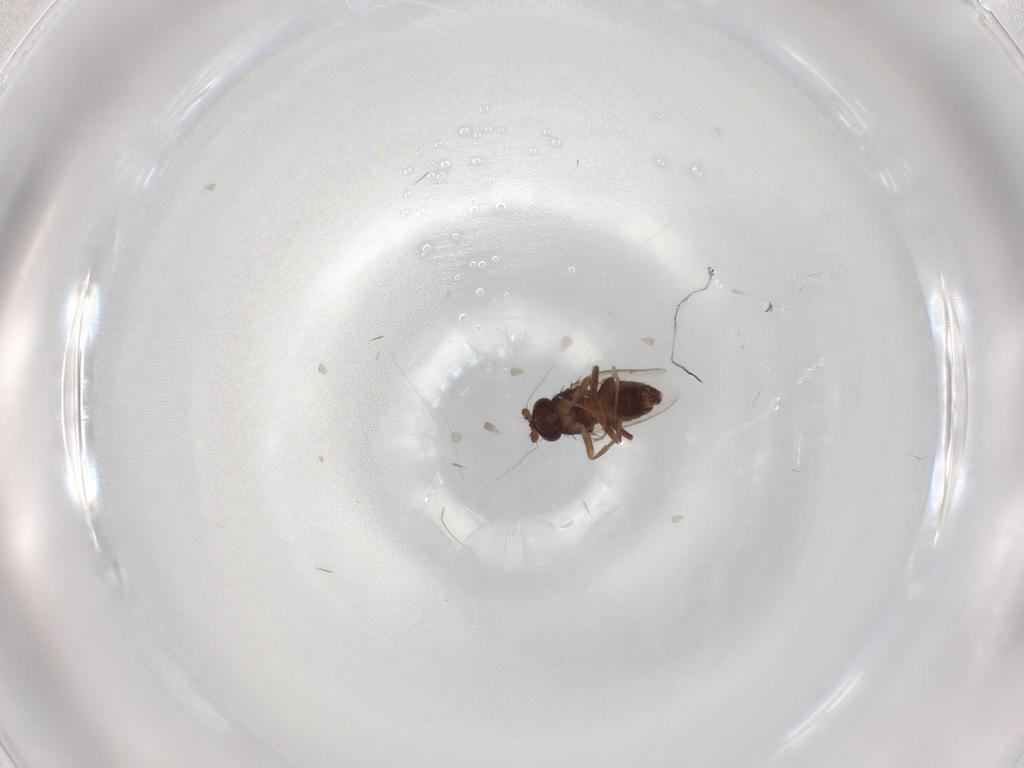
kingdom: Animalia
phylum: Arthropoda
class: Insecta
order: Diptera
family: Sphaeroceridae
